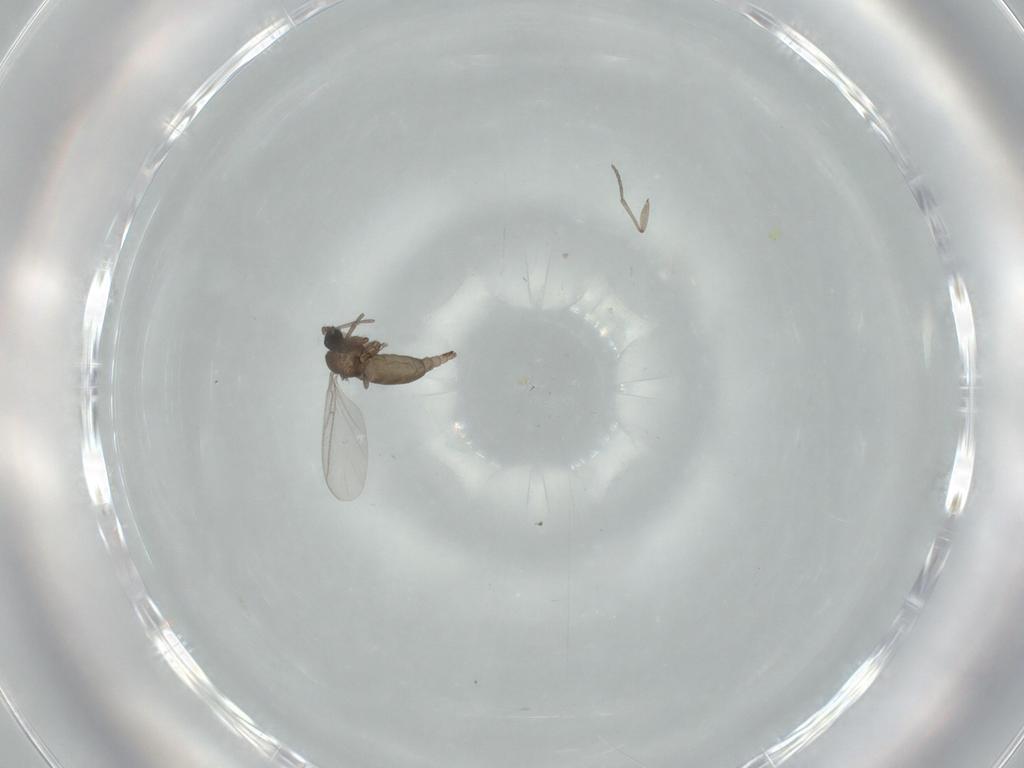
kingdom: Animalia
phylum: Arthropoda
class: Insecta
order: Diptera
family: Sciaridae
